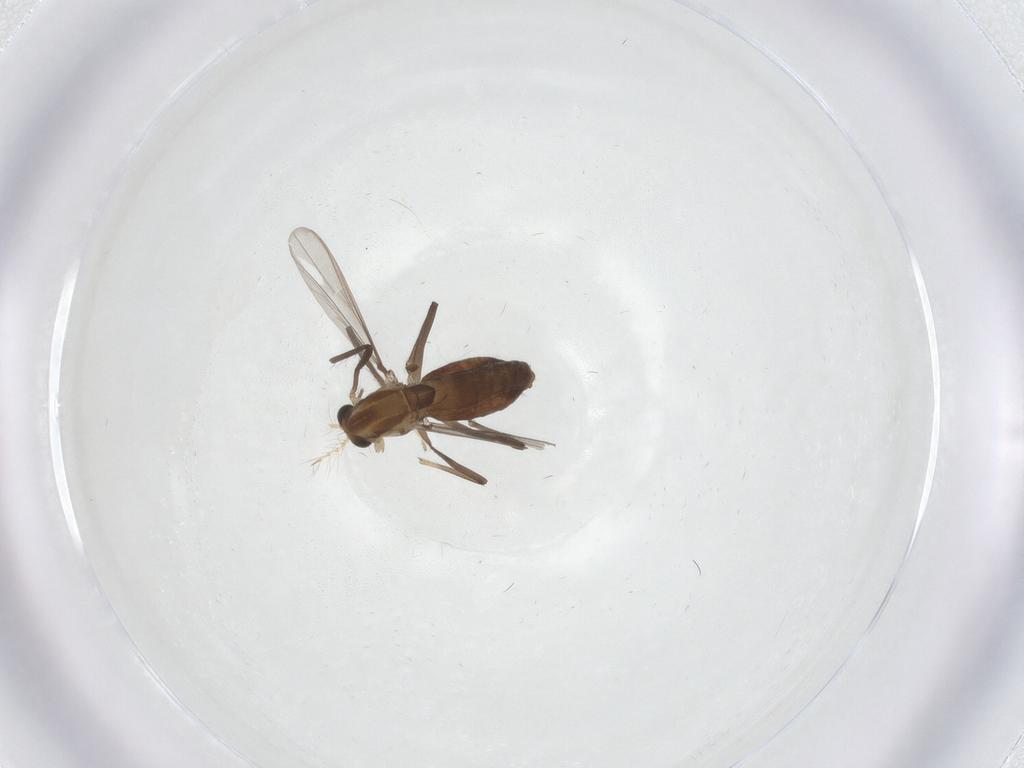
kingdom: Animalia
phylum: Arthropoda
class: Insecta
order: Diptera
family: Chironomidae
